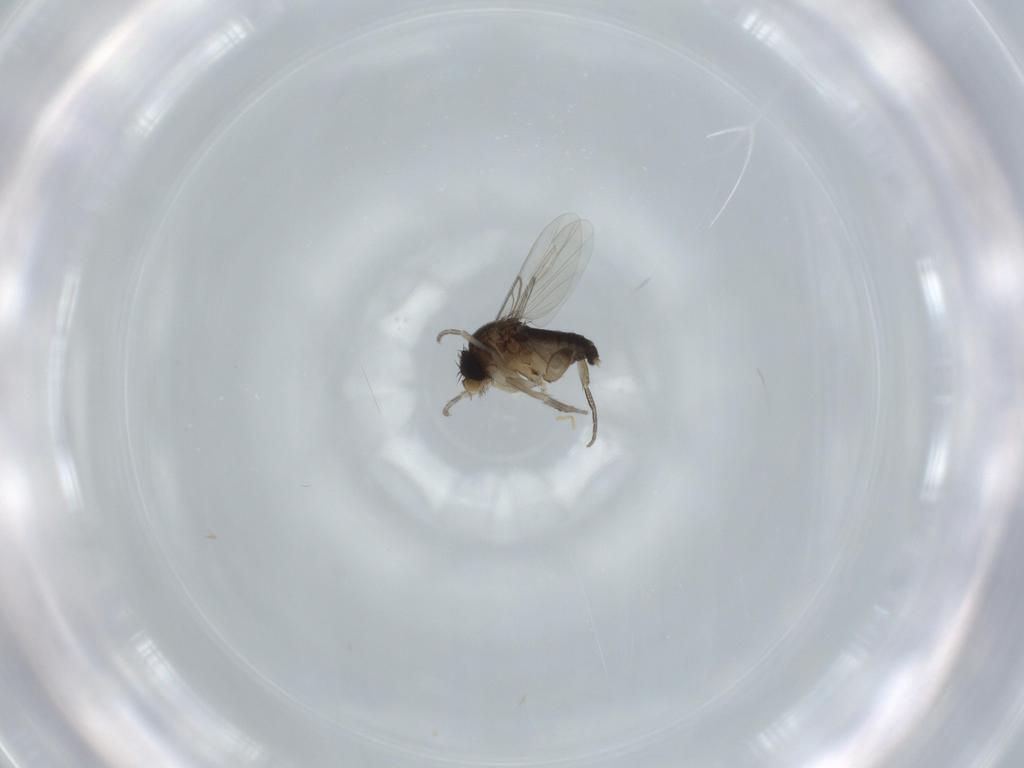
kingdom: Animalia
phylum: Arthropoda
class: Insecta
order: Diptera
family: Phoridae
